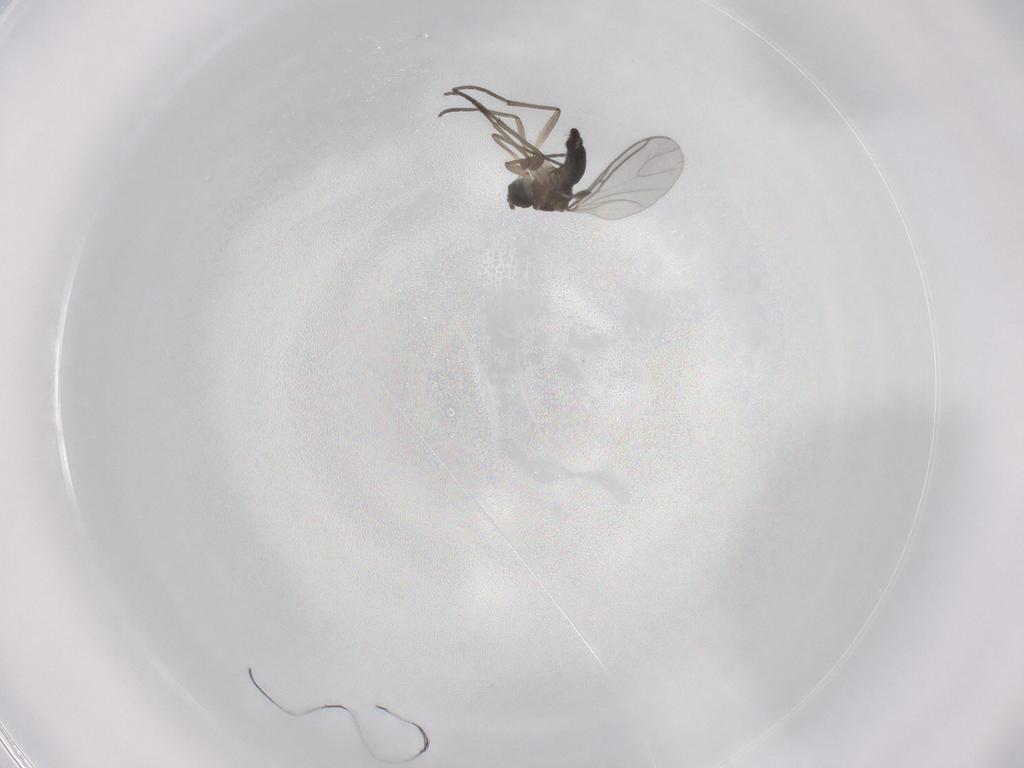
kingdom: Animalia
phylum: Arthropoda
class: Insecta
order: Diptera
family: Sciaridae
